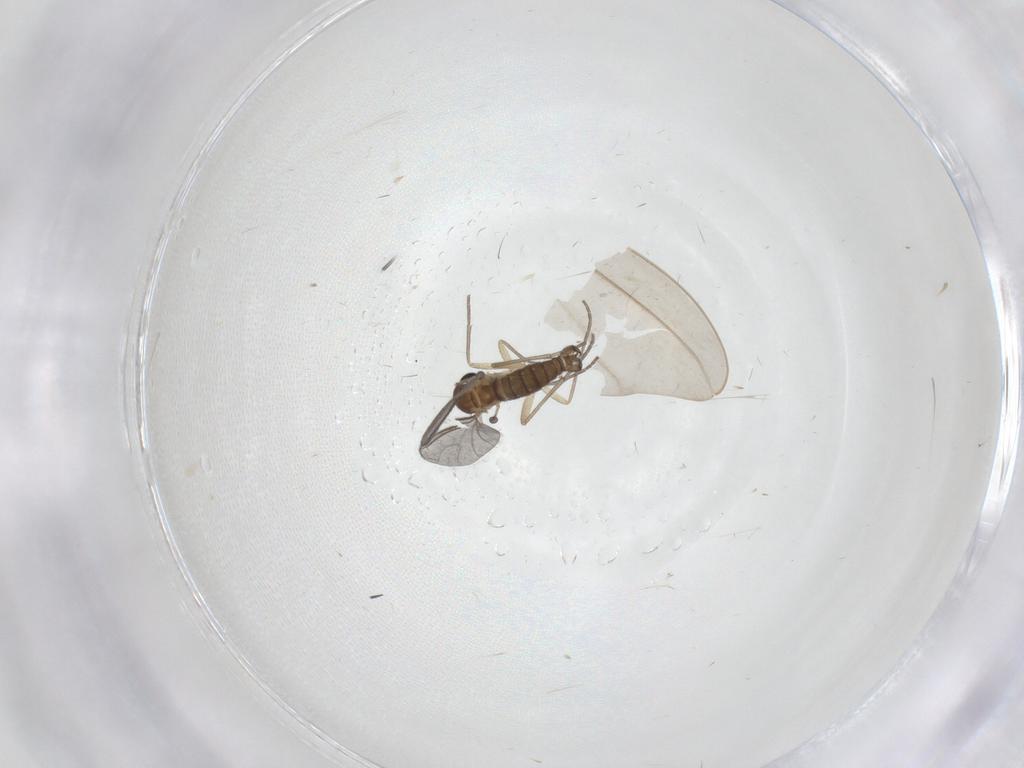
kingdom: Animalia
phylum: Arthropoda
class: Insecta
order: Diptera
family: Sciaridae
